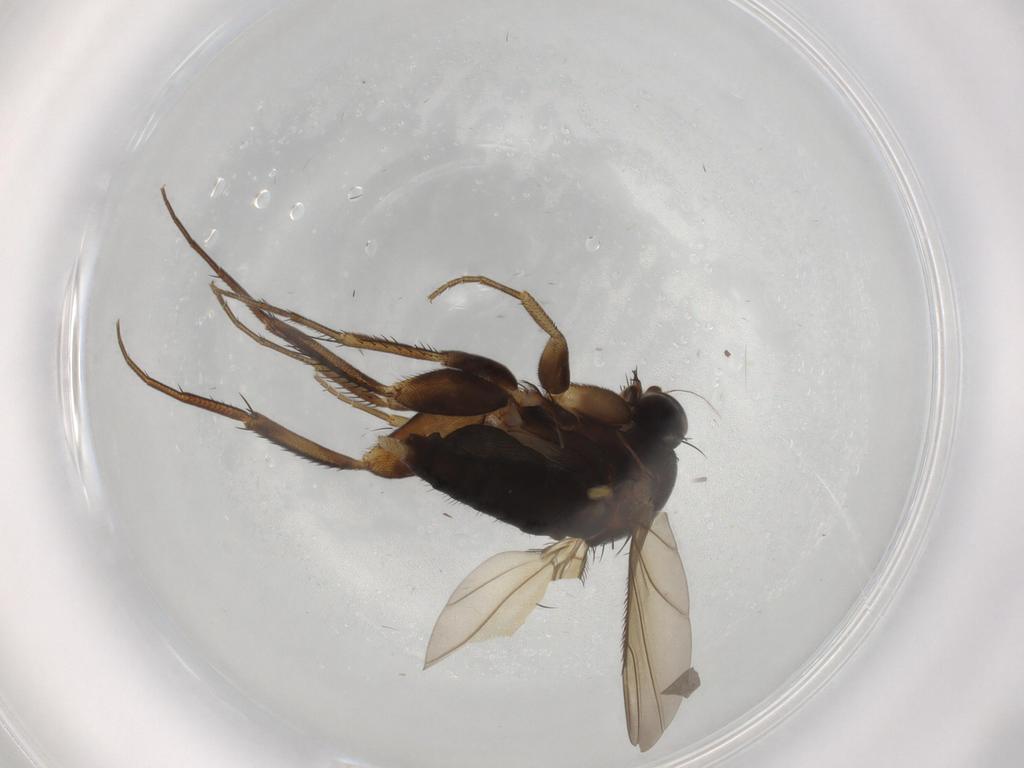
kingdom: Animalia
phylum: Arthropoda
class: Insecta
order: Diptera
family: Phoridae
